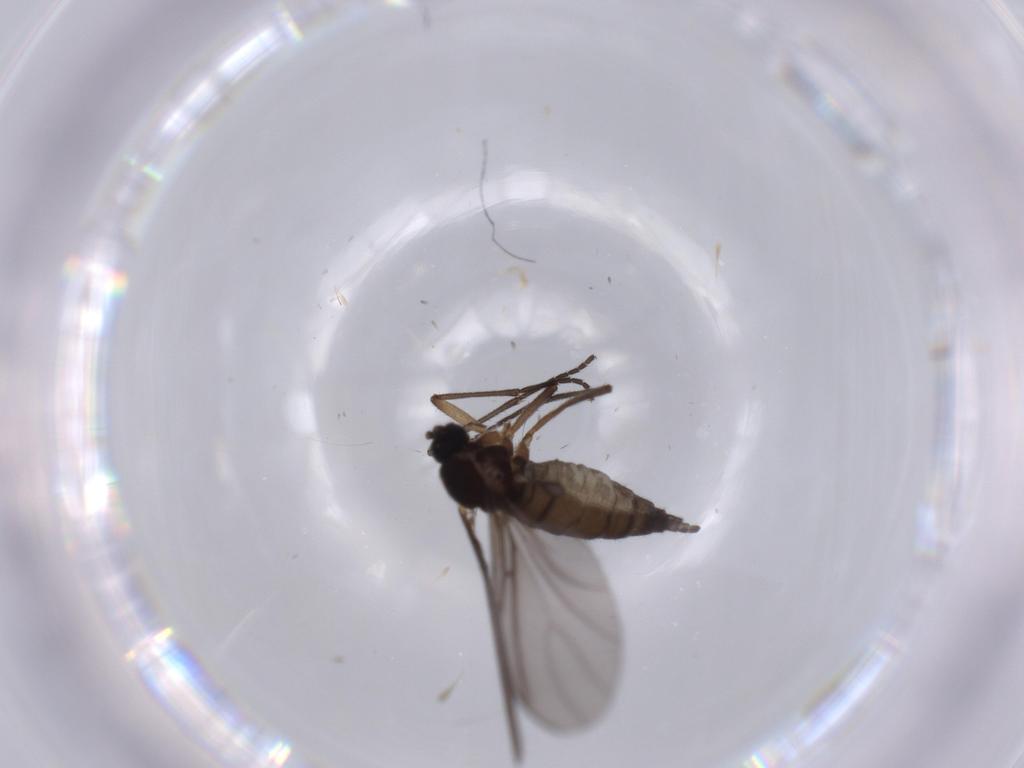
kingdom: Animalia
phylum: Arthropoda
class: Insecta
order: Diptera
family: Sciaridae
